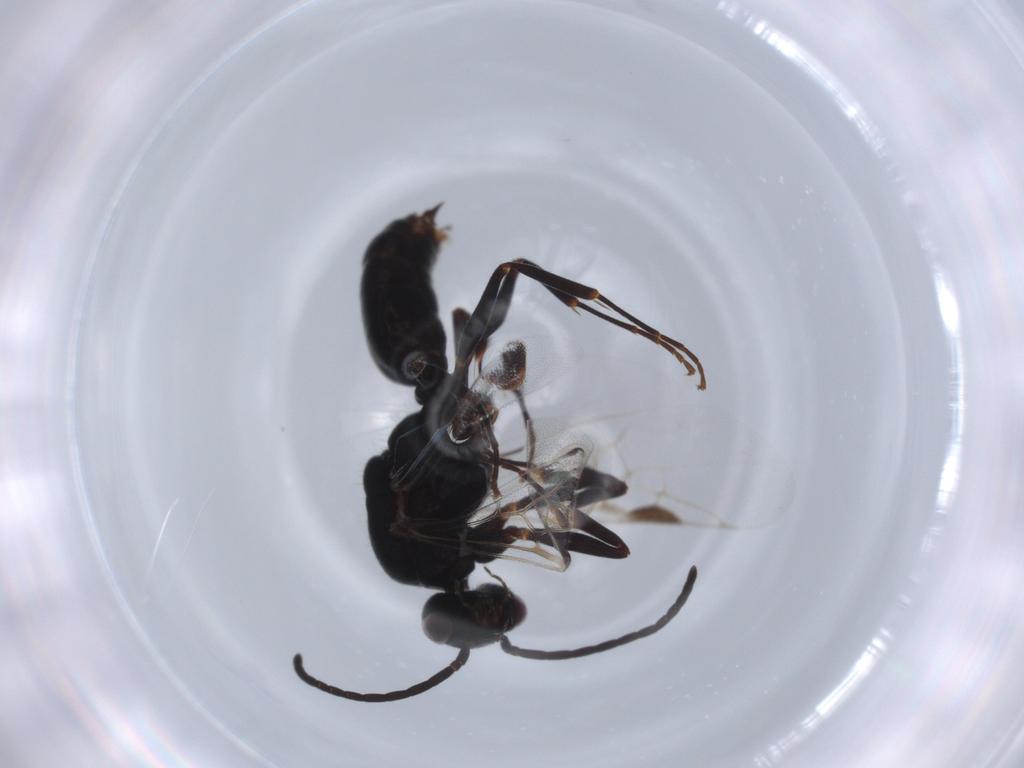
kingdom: Animalia
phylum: Arthropoda
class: Insecta
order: Hymenoptera
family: Formicidae
